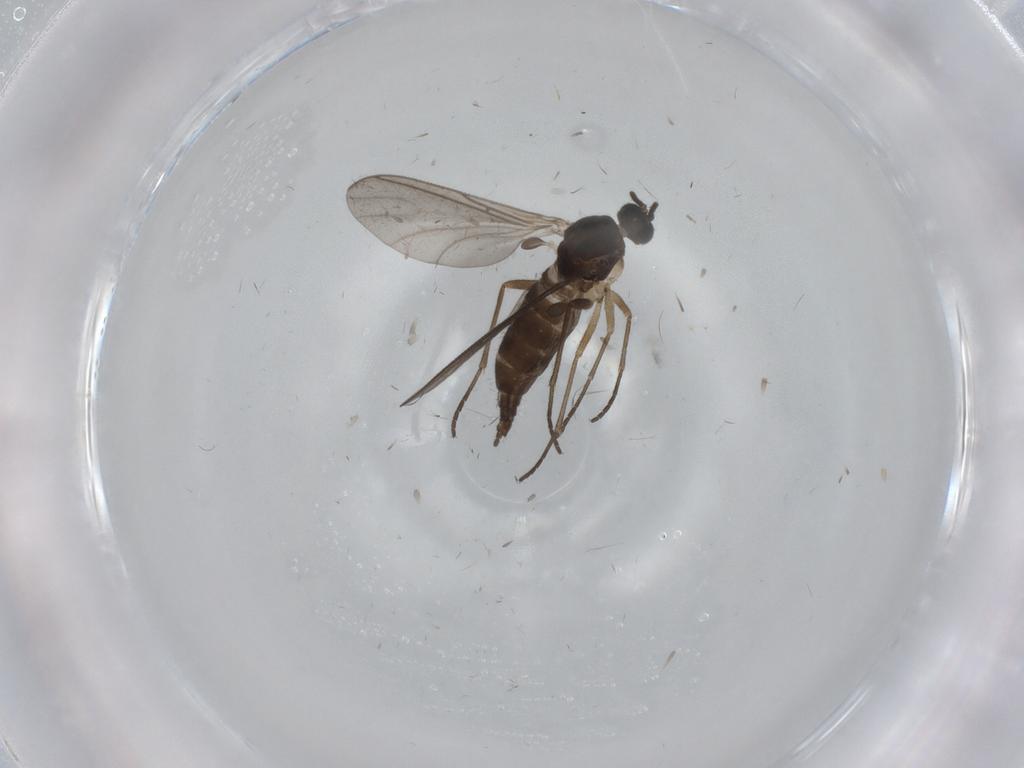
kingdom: Animalia
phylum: Arthropoda
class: Insecta
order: Diptera
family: Sciaridae
